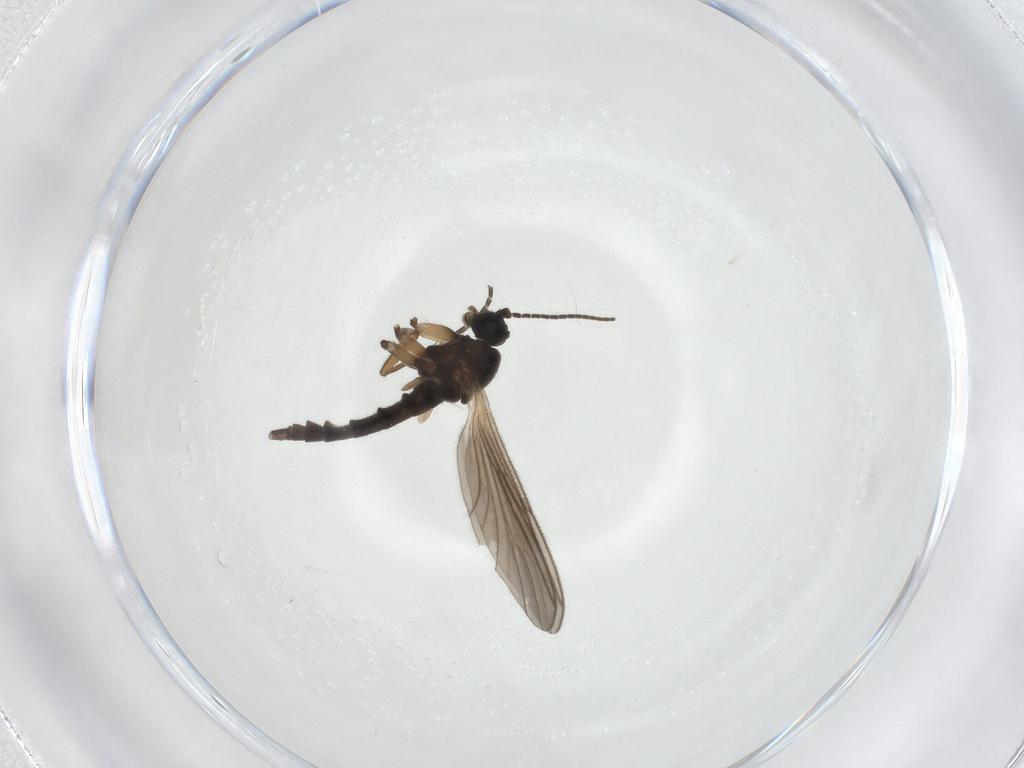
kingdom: Animalia
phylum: Arthropoda
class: Insecta
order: Diptera
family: Sciaridae
